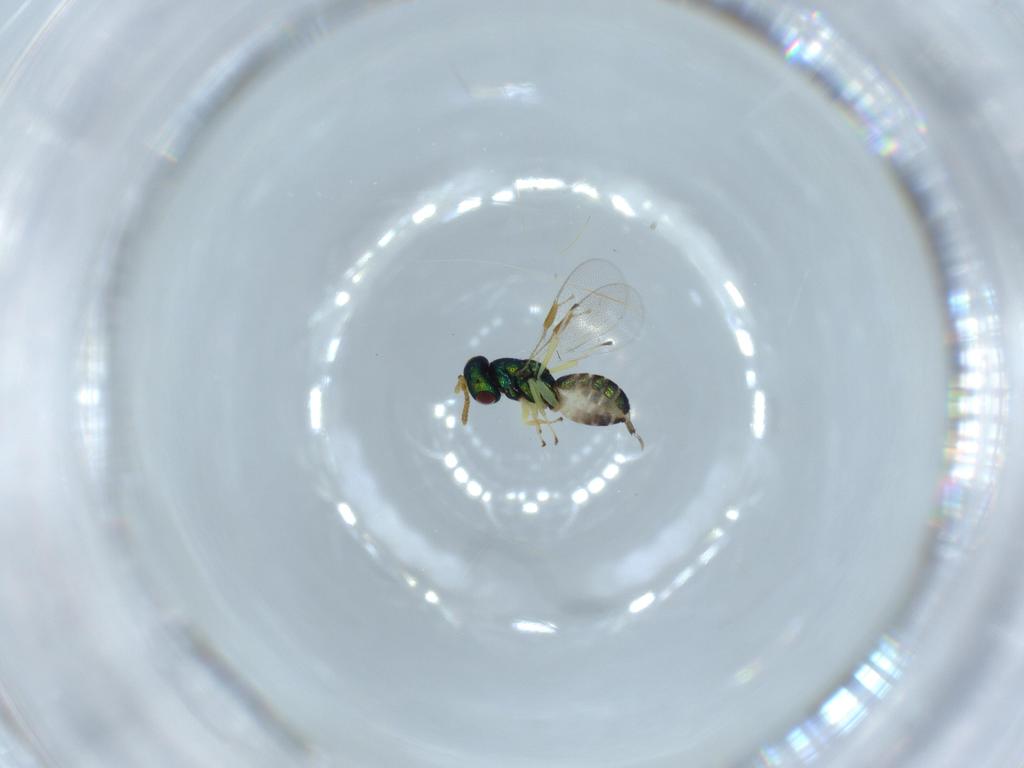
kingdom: Animalia
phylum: Arthropoda
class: Insecta
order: Hymenoptera
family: Pteromalidae
